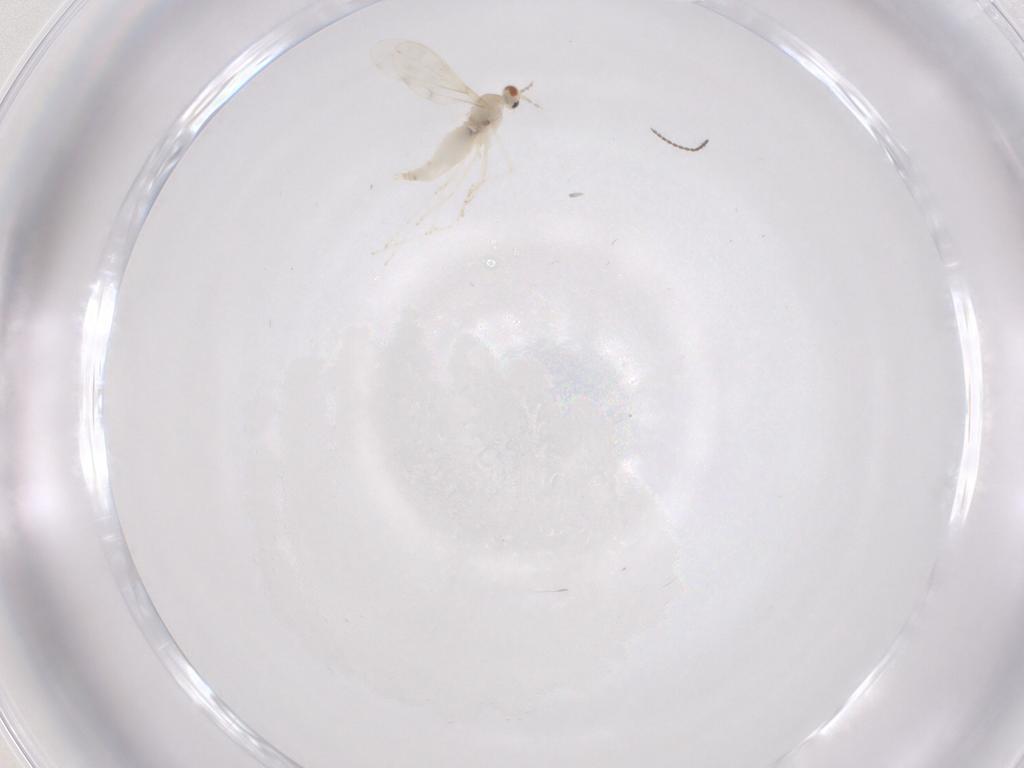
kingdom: Animalia
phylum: Arthropoda
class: Insecta
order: Diptera
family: Cecidomyiidae
